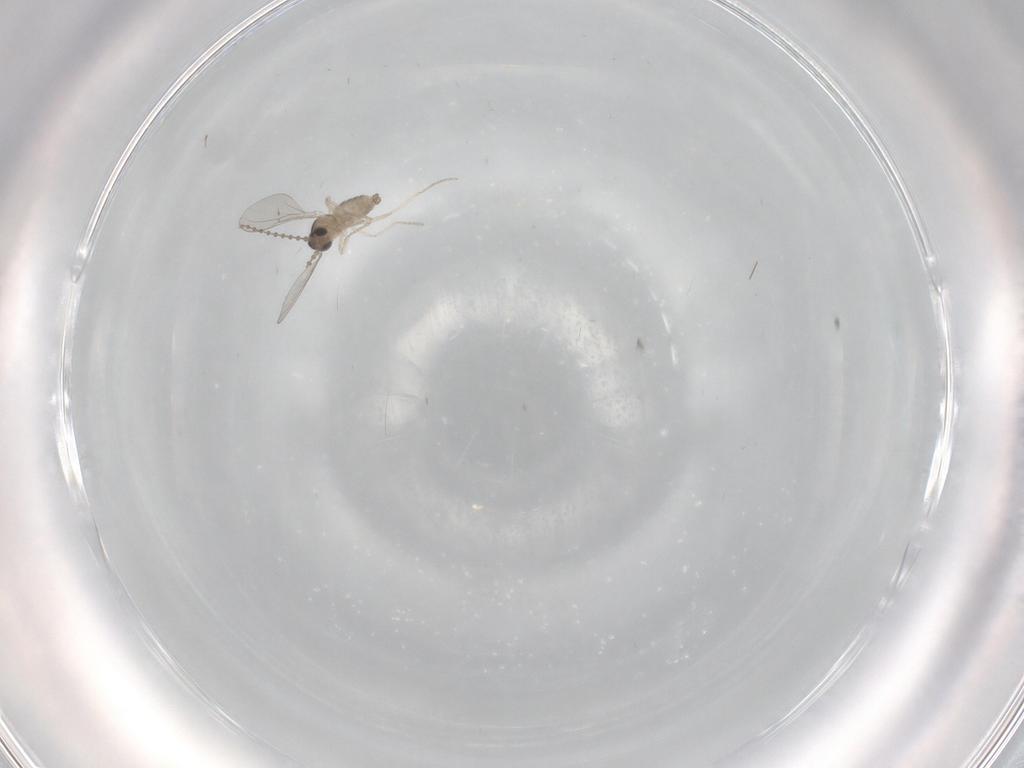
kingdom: Animalia
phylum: Arthropoda
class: Insecta
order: Diptera
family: Cecidomyiidae
